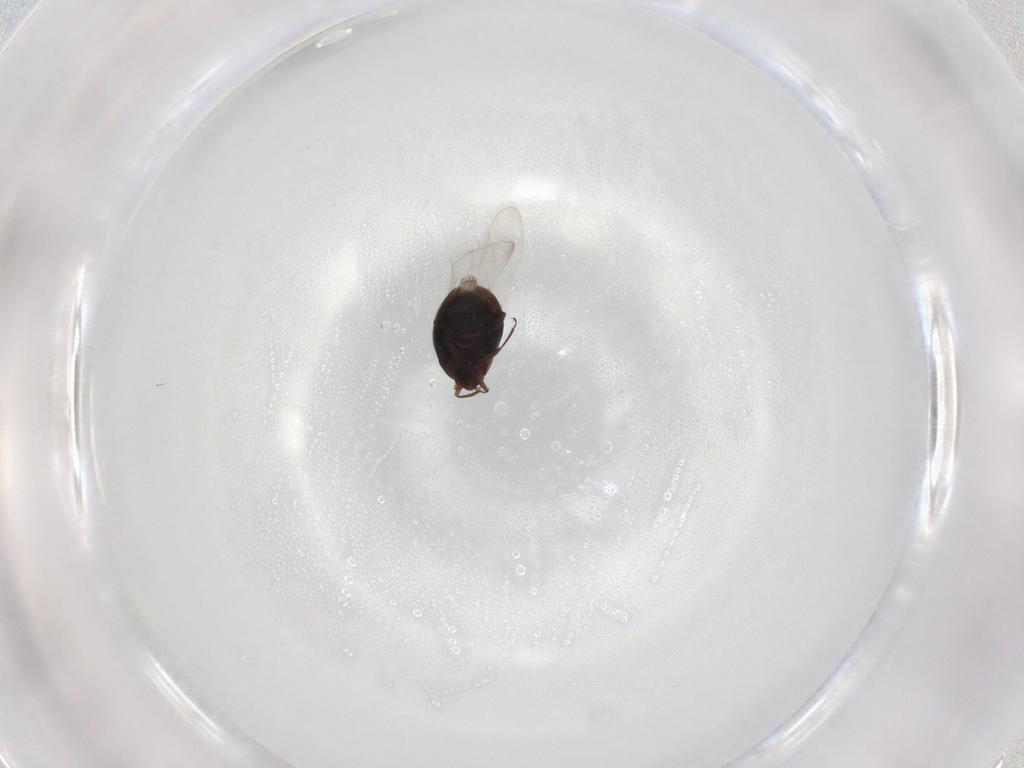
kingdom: Animalia
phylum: Arthropoda
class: Insecta
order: Coleoptera
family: Corylophidae
